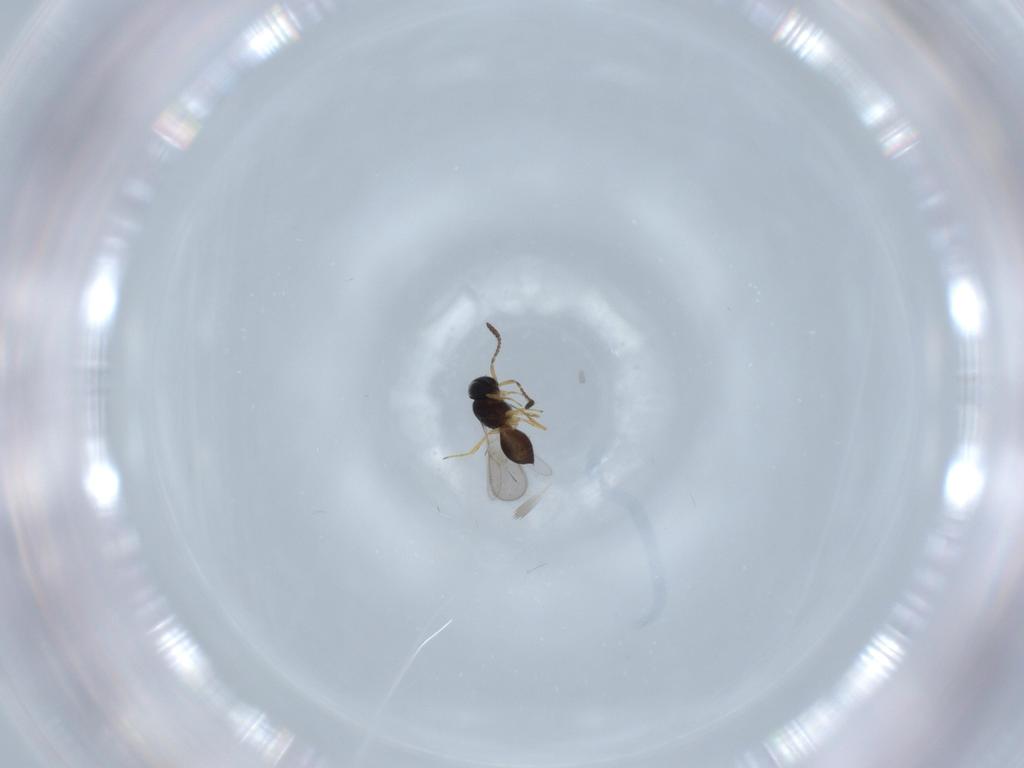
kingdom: Animalia
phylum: Arthropoda
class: Insecta
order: Hymenoptera
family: Scelionidae
